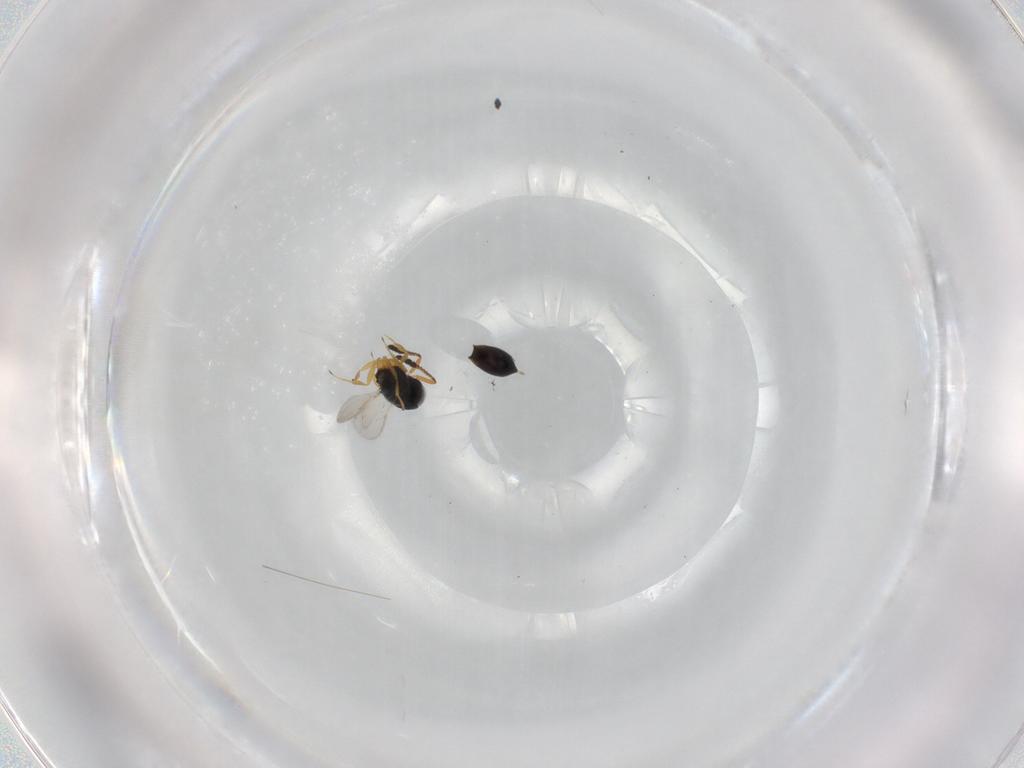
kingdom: Animalia
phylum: Arthropoda
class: Insecta
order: Hymenoptera
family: Scelionidae
